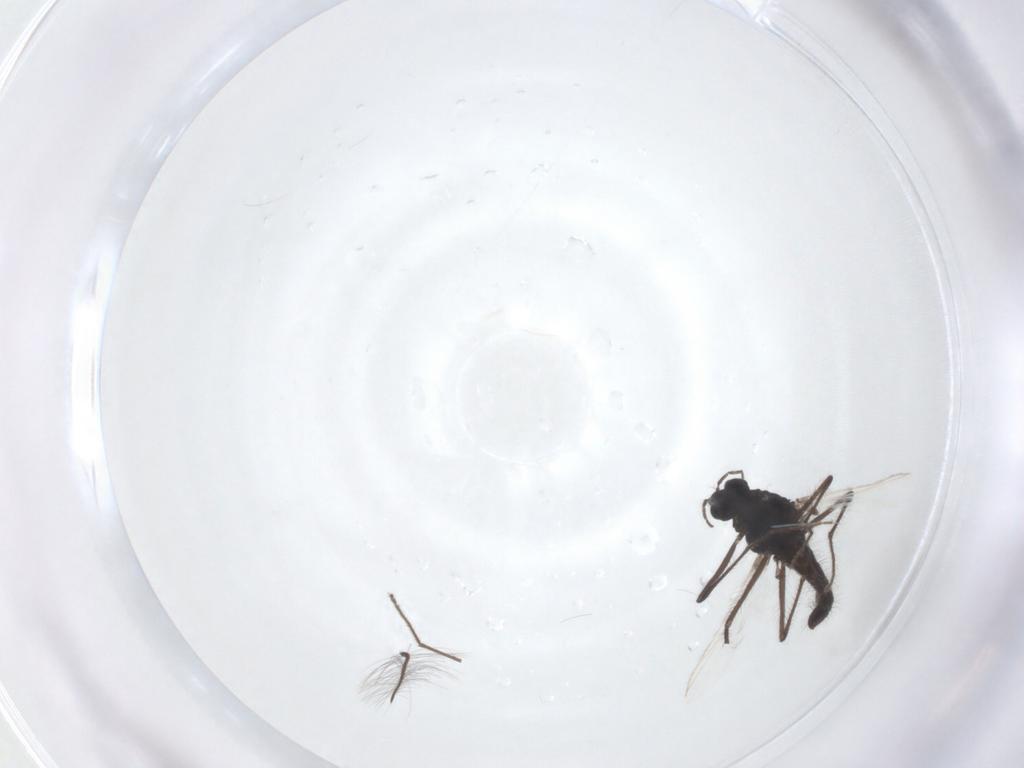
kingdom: Animalia
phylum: Arthropoda
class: Insecta
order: Diptera
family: Chironomidae
